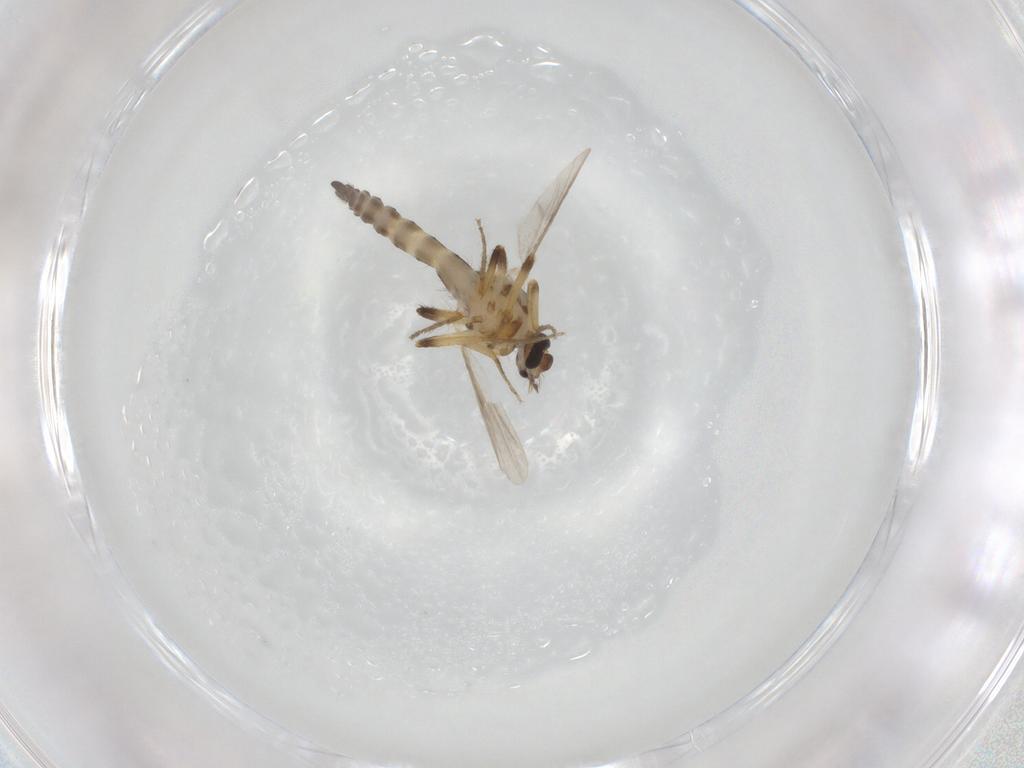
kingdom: Animalia
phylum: Arthropoda
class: Insecta
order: Diptera
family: Ceratopogonidae
